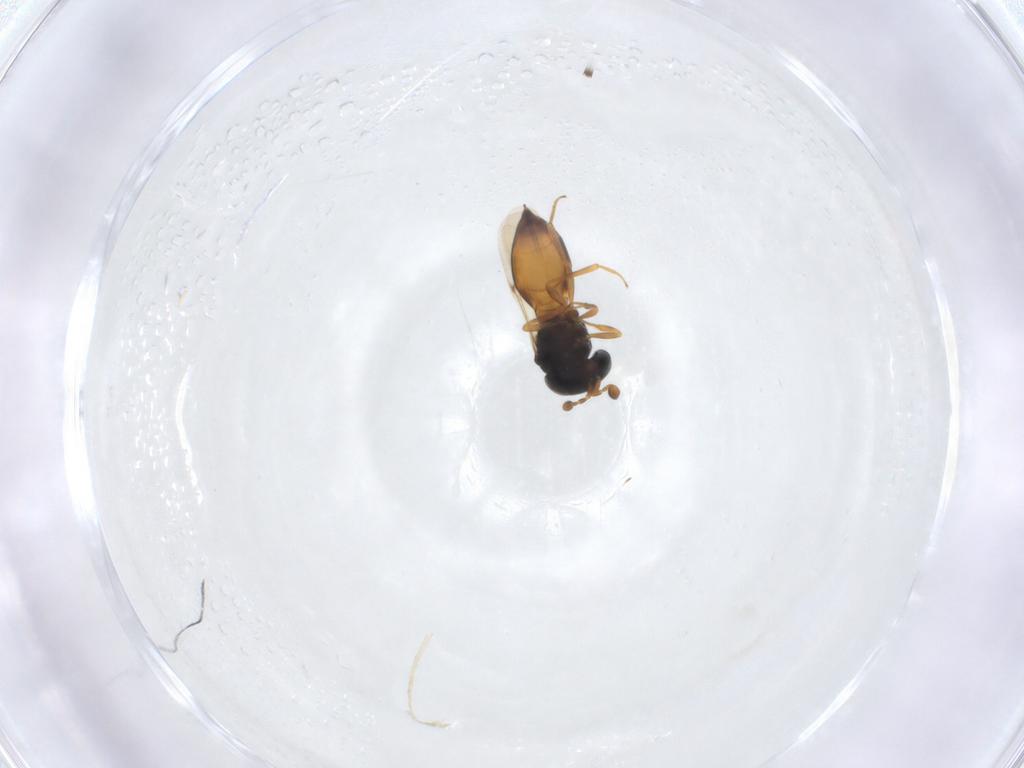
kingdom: Animalia
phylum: Arthropoda
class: Insecta
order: Hymenoptera
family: Scelionidae
